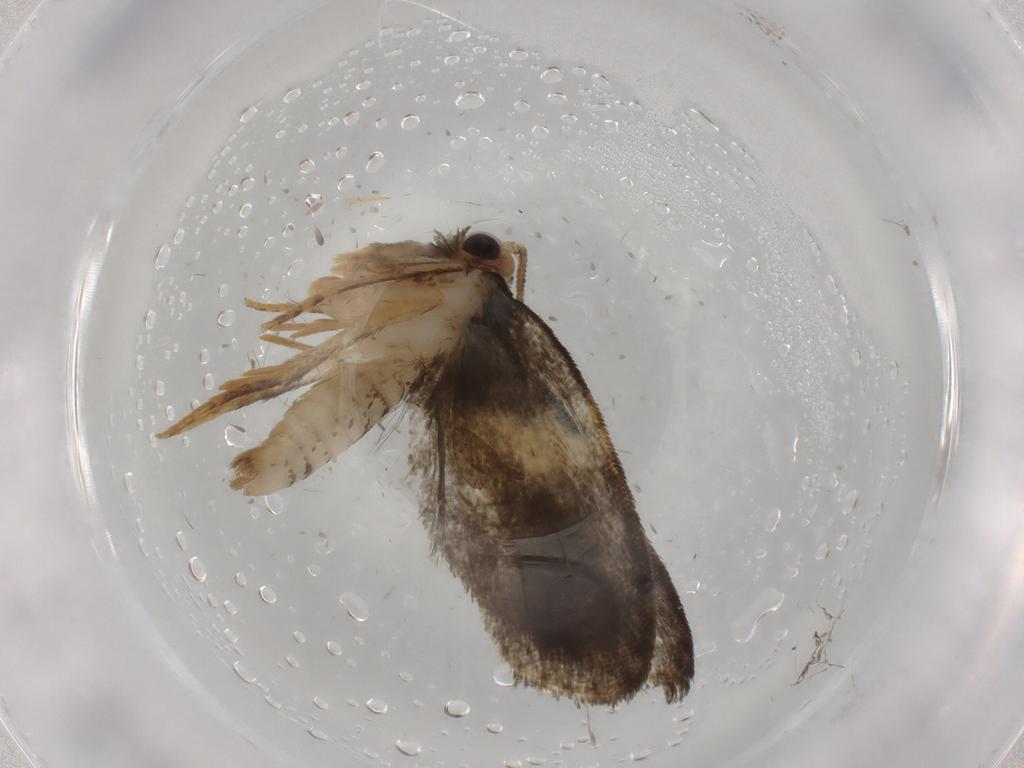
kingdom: Animalia
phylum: Arthropoda
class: Insecta
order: Lepidoptera
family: Psychidae
